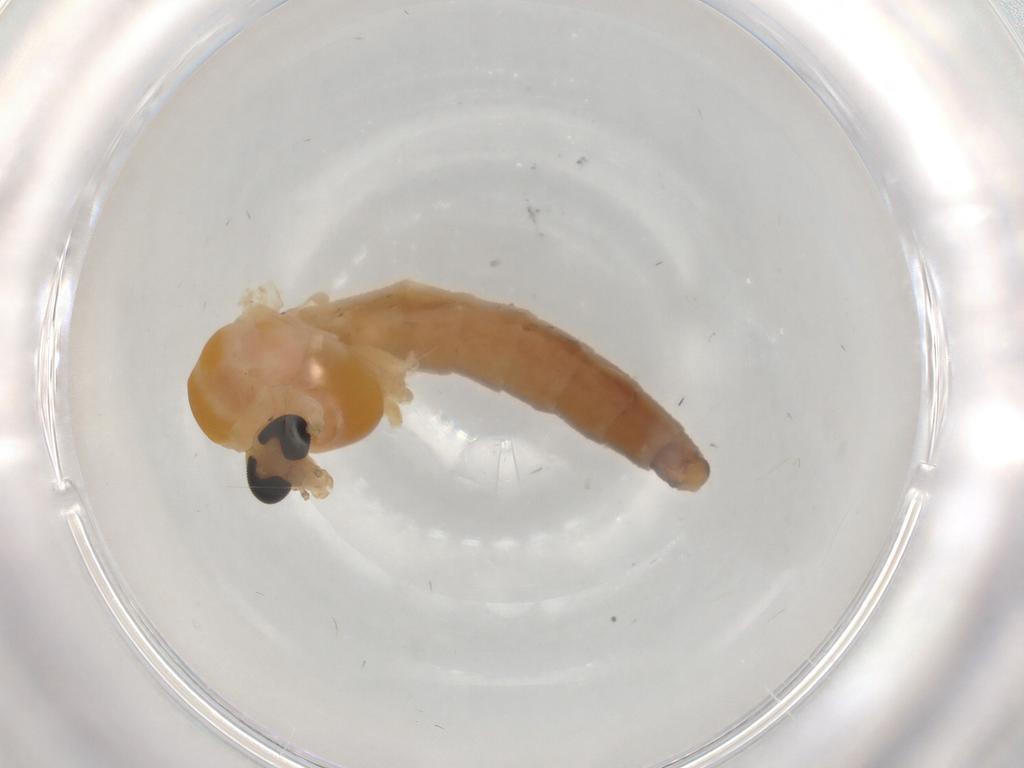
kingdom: Animalia
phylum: Arthropoda
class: Insecta
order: Diptera
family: Cecidomyiidae
